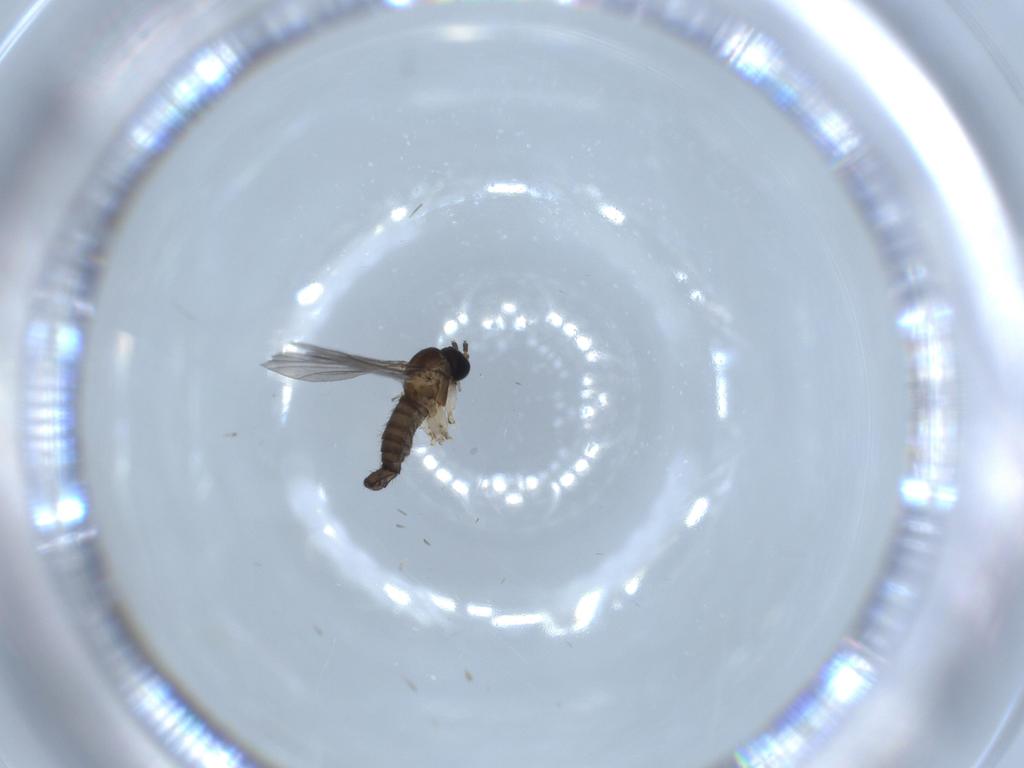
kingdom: Animalia
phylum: Arthropoda
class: Insecta
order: Diptera
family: Sciaridae
